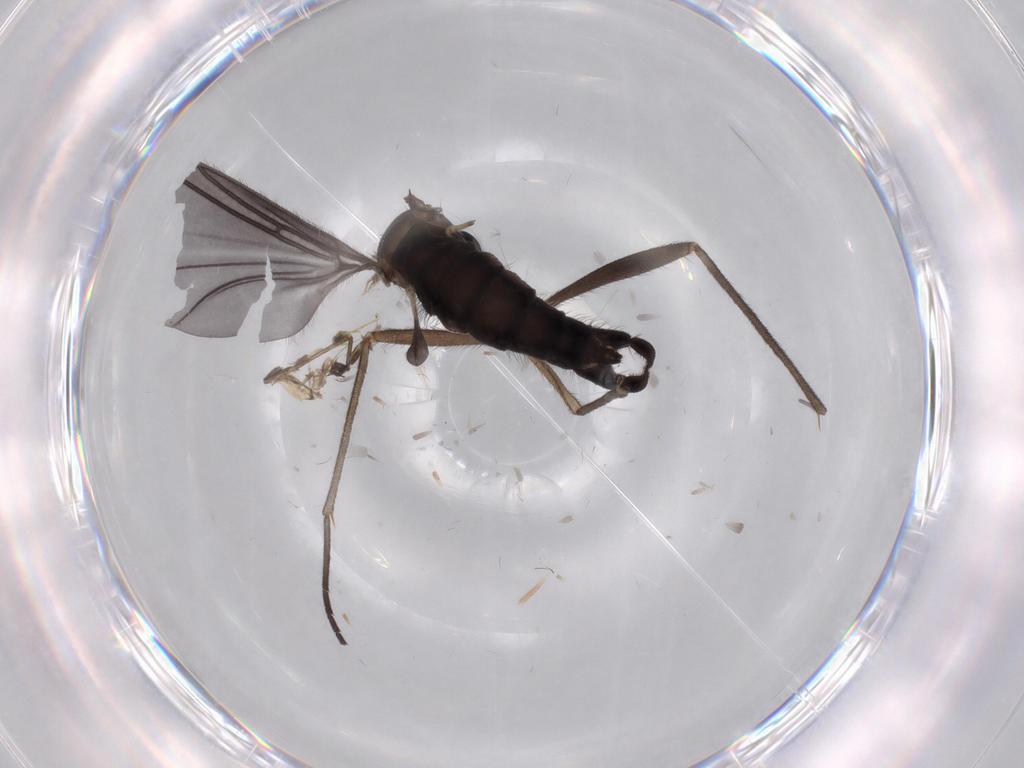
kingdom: Animalia
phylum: Arthropoda
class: Insecta
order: Diptera
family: Sciaridae
